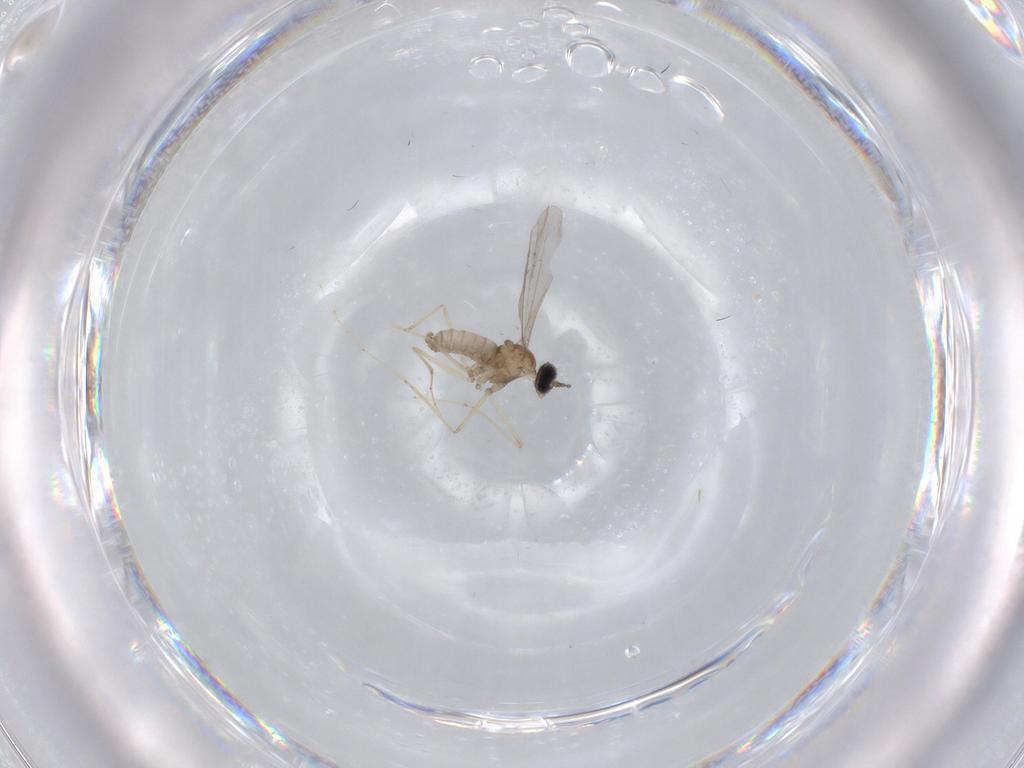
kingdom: Animalia
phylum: Arthropoda
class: Insecta
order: Diptera
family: Cecidomyiidae
